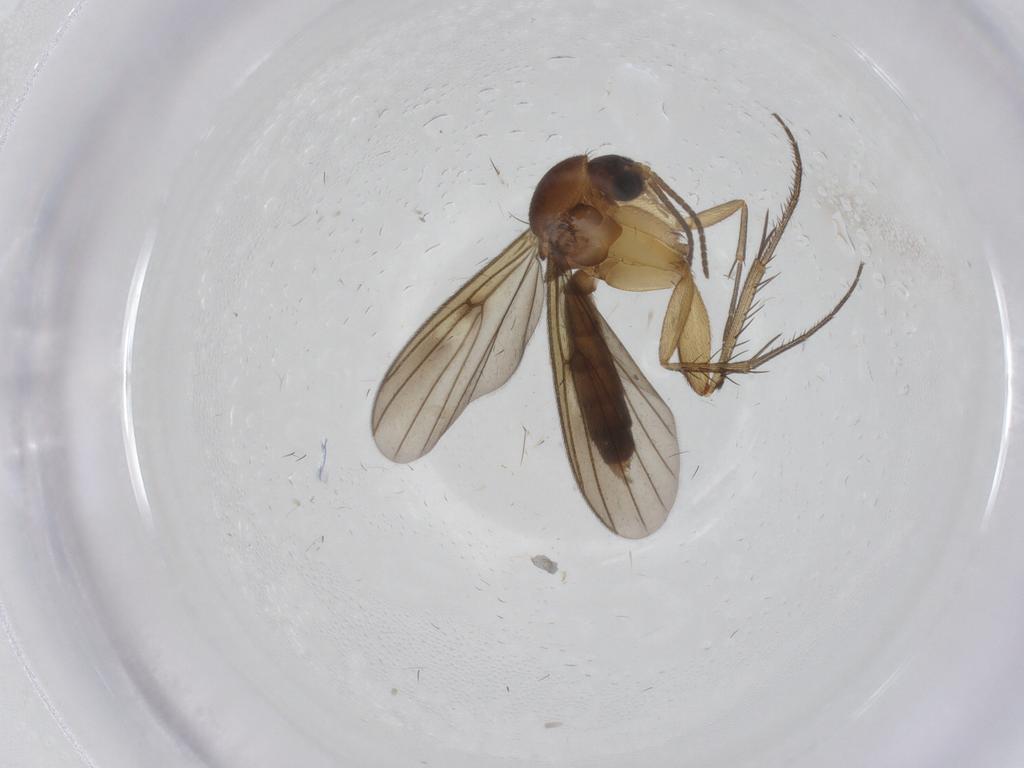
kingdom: Animalia
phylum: Arthropoda
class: Insecta
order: Diptera
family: Mycetophilidae
